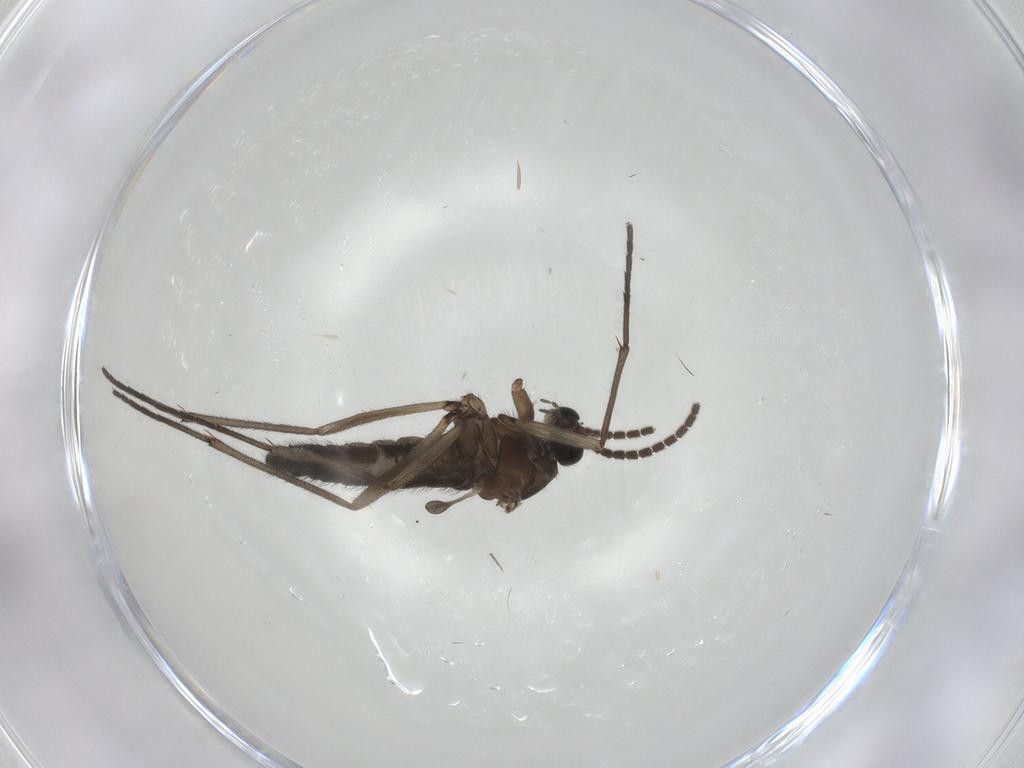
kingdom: Animalia
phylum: Arthropoda
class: Insecta
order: Diptera
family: Sciaridae
